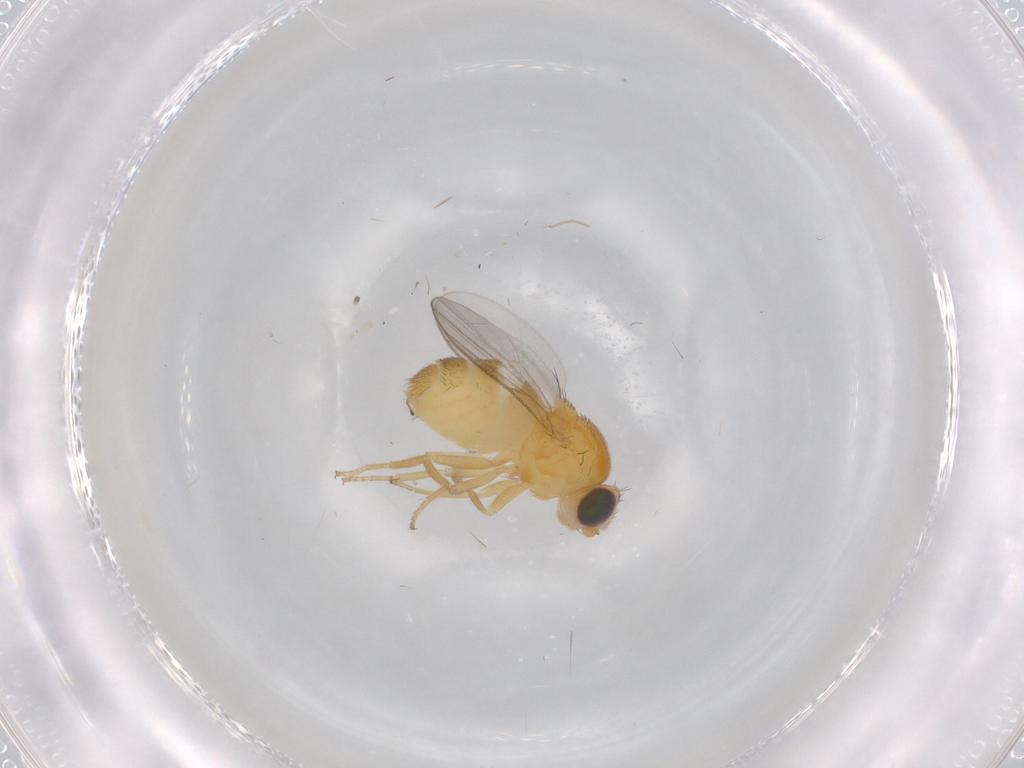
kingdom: Animalia
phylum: Arthropoda
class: Insecta
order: Diptera
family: Chloropidae
